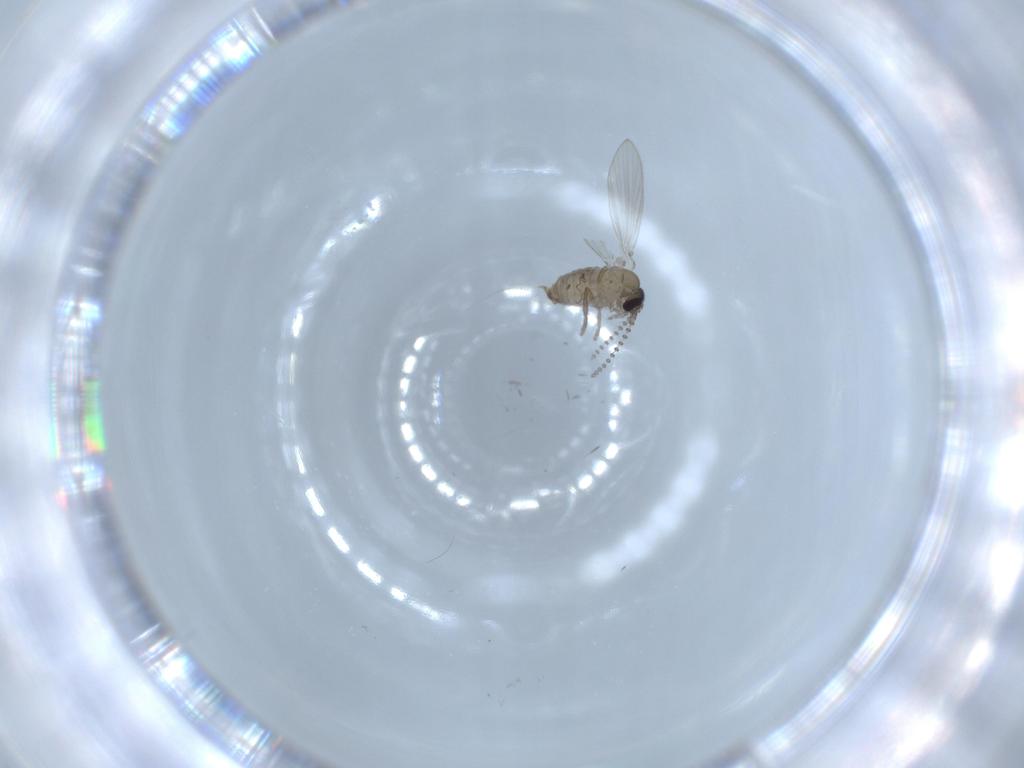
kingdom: Animalia
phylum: Arthropoda
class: Insecta
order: Diptera
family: Psychodidae
